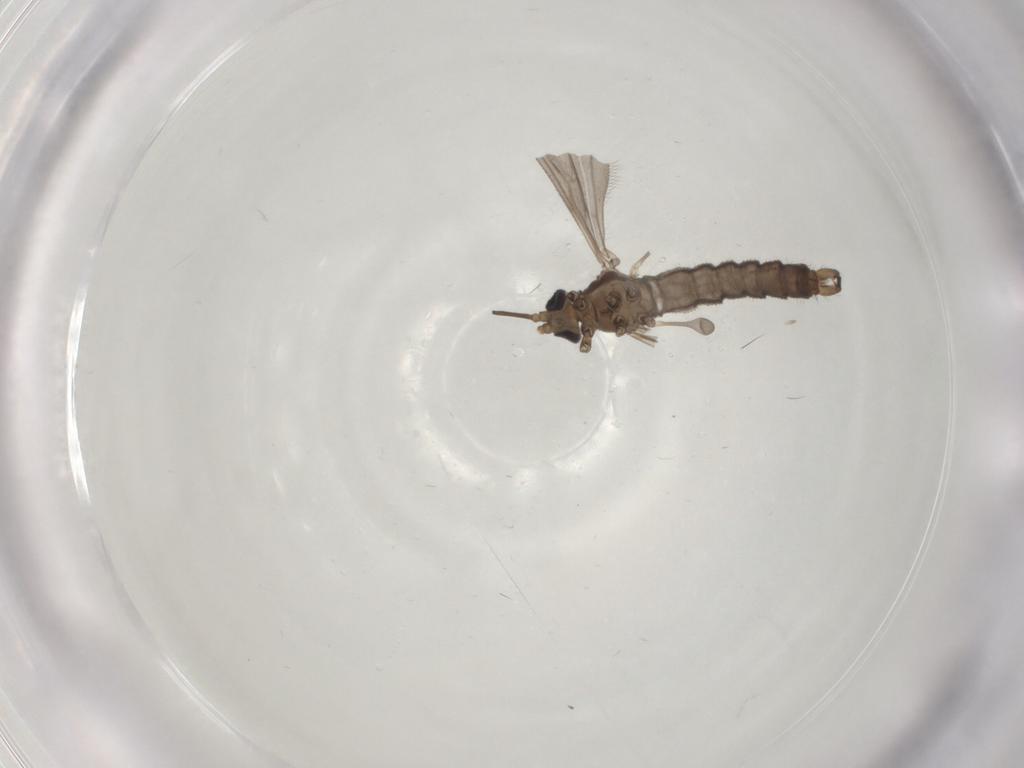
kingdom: Animalia
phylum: Arthropoda
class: Insecta
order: Diptera
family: Limoniidae
